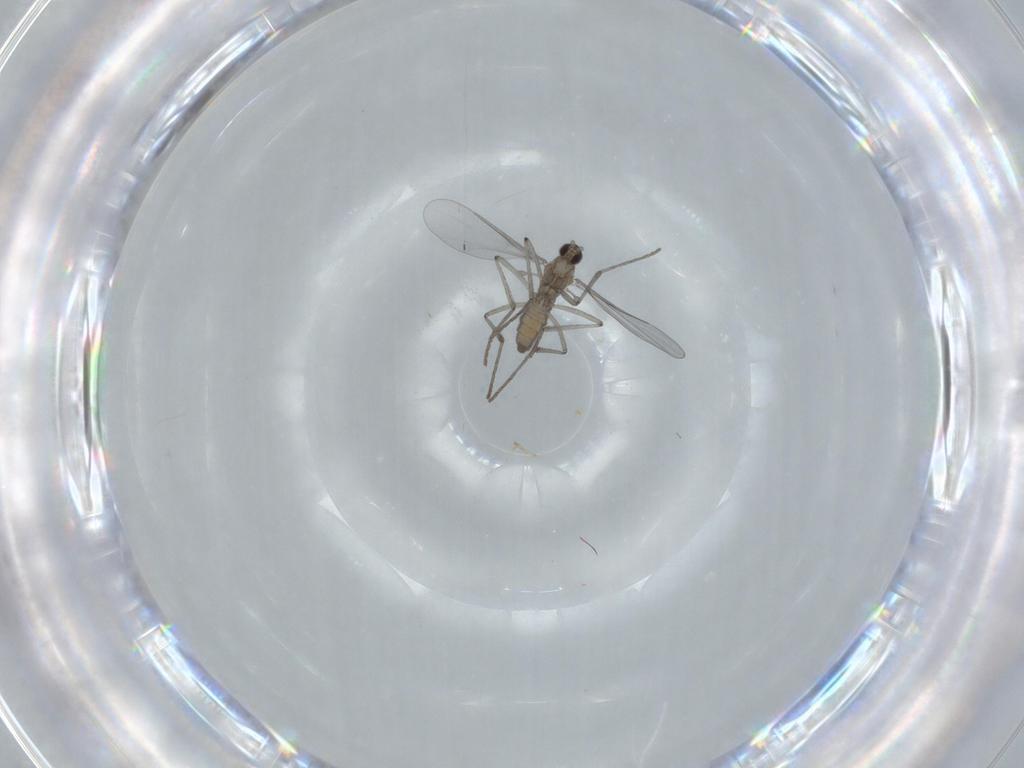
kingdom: Animalia
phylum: Arthropoda
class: Insecta
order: Diptera
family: Cecidomyiidae
